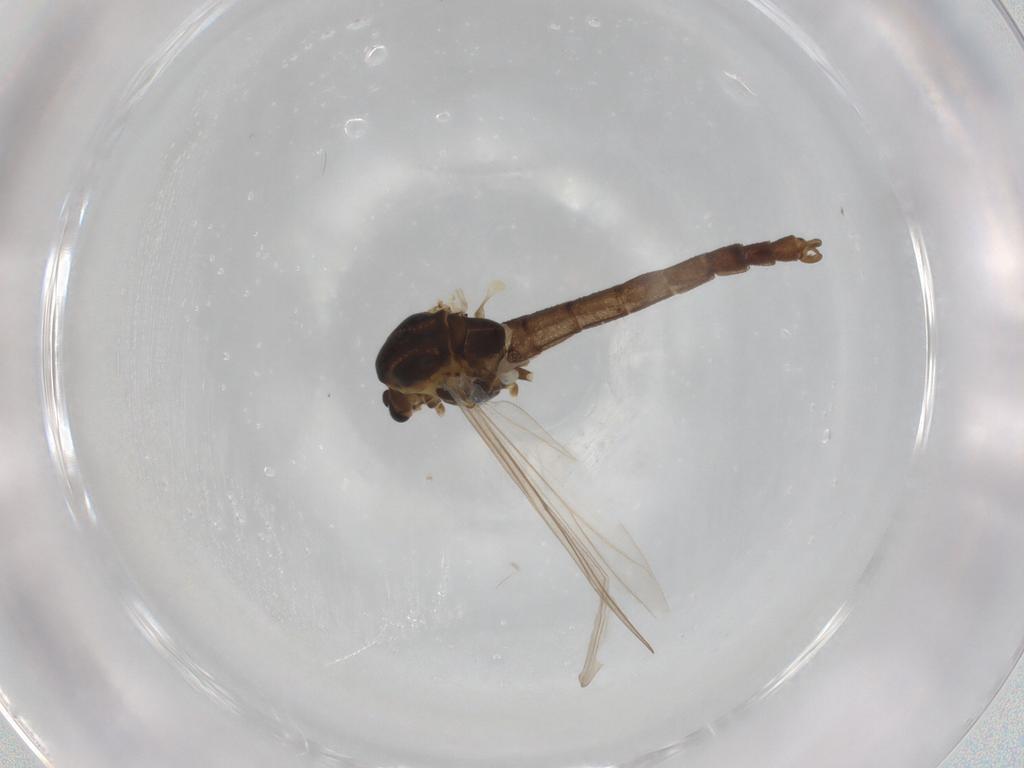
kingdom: Animalia
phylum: Arthropoda
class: Insecta
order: Diptera
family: Chironomidae
